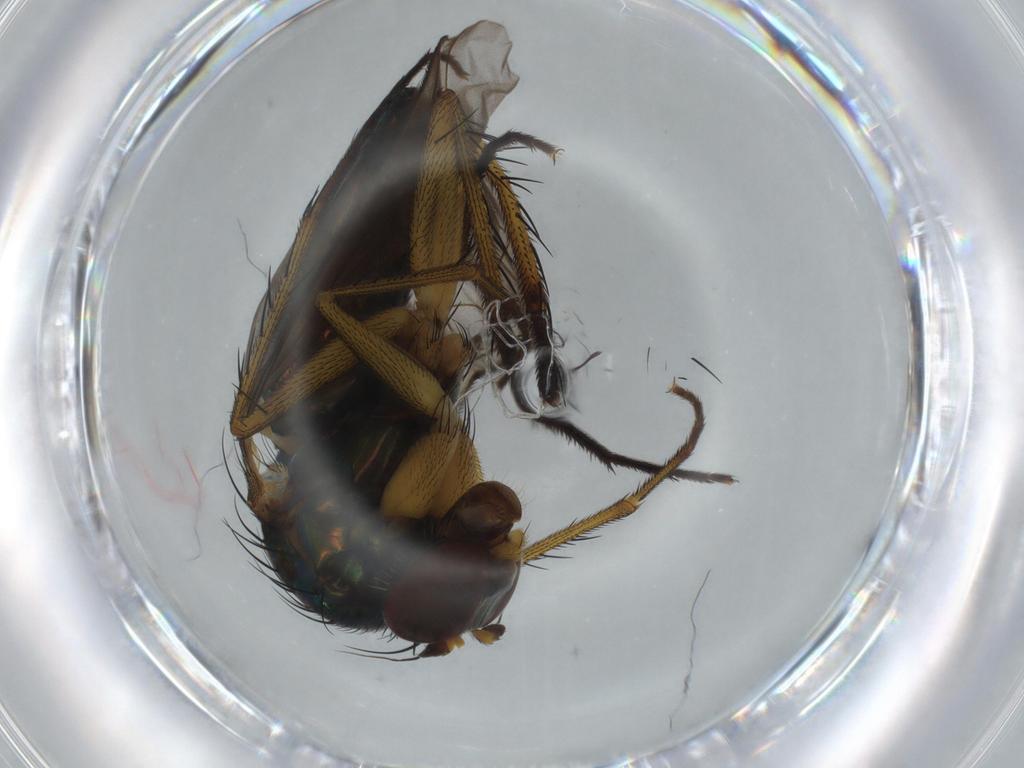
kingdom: Animalia
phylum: Arthropoda
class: Insecta
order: Diptera
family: Dolichopodidae
